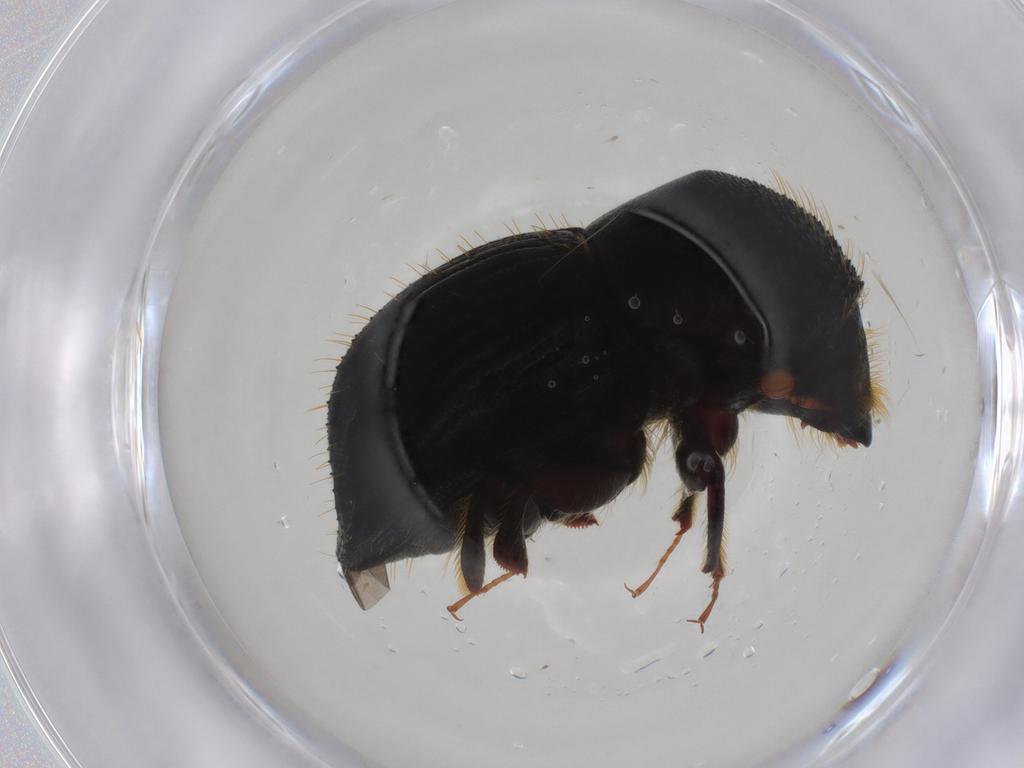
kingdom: Animalia
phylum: Arthropoda
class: Insecta
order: Coleoptera
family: Curculionidae
